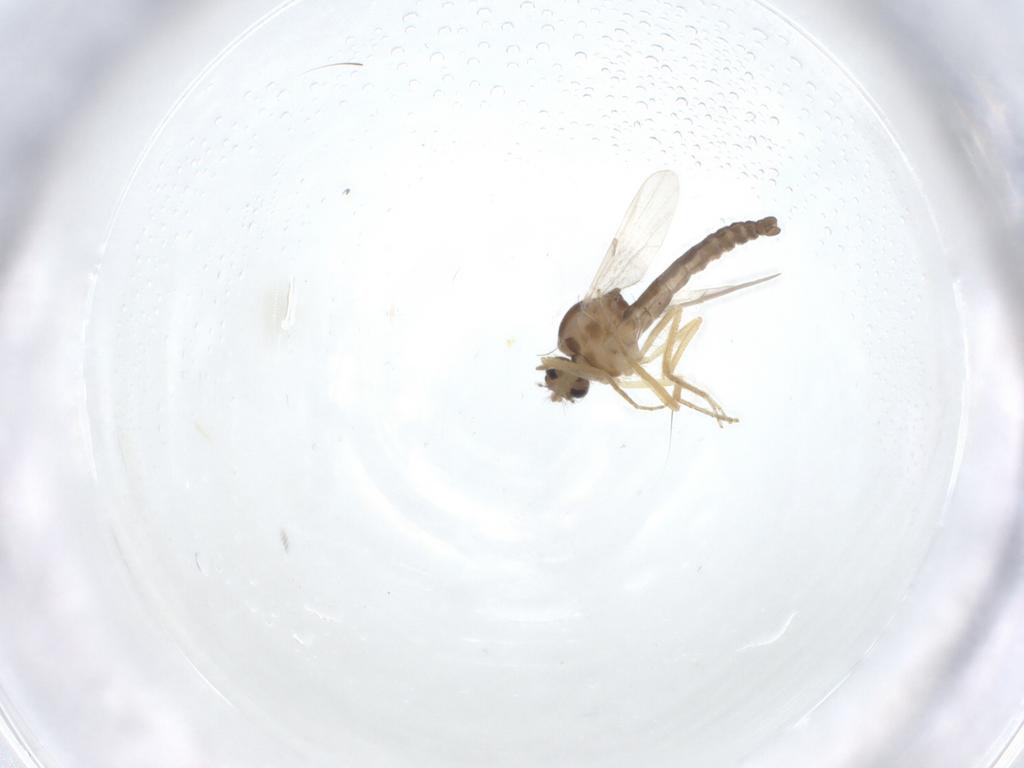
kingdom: Animalia
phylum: Arthropoda
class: Insecta
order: Diptera
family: Ceratopogonidae
